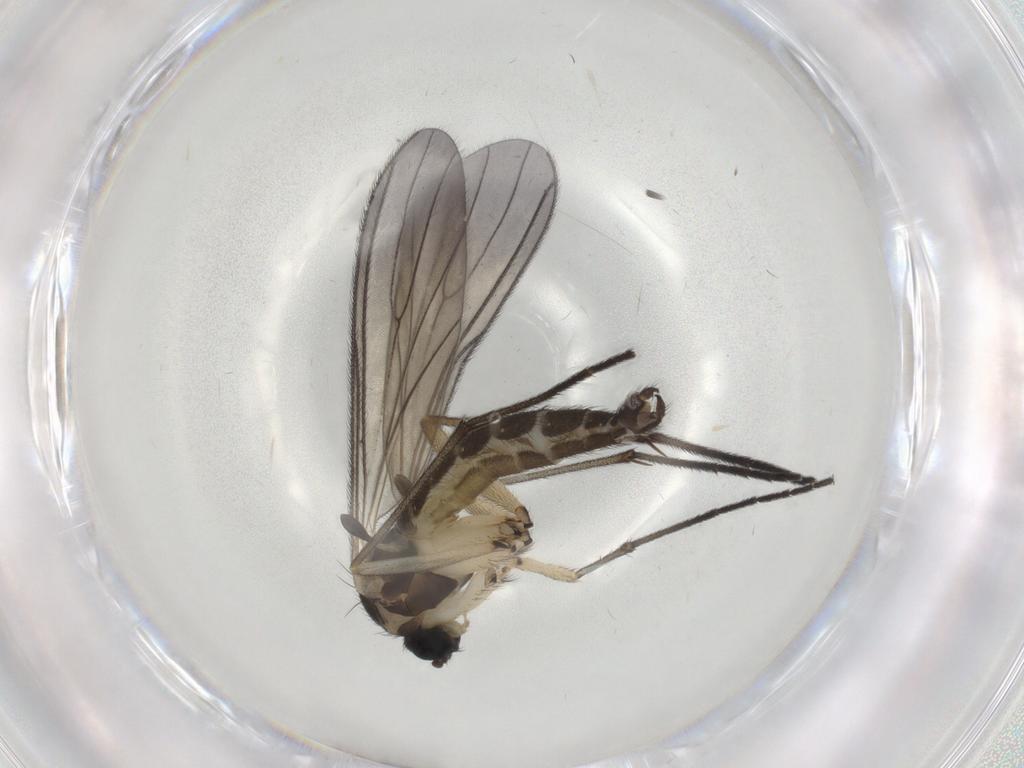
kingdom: Animalia
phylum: Arthropoda
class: Insecta
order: Diptera
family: Sciaridae
